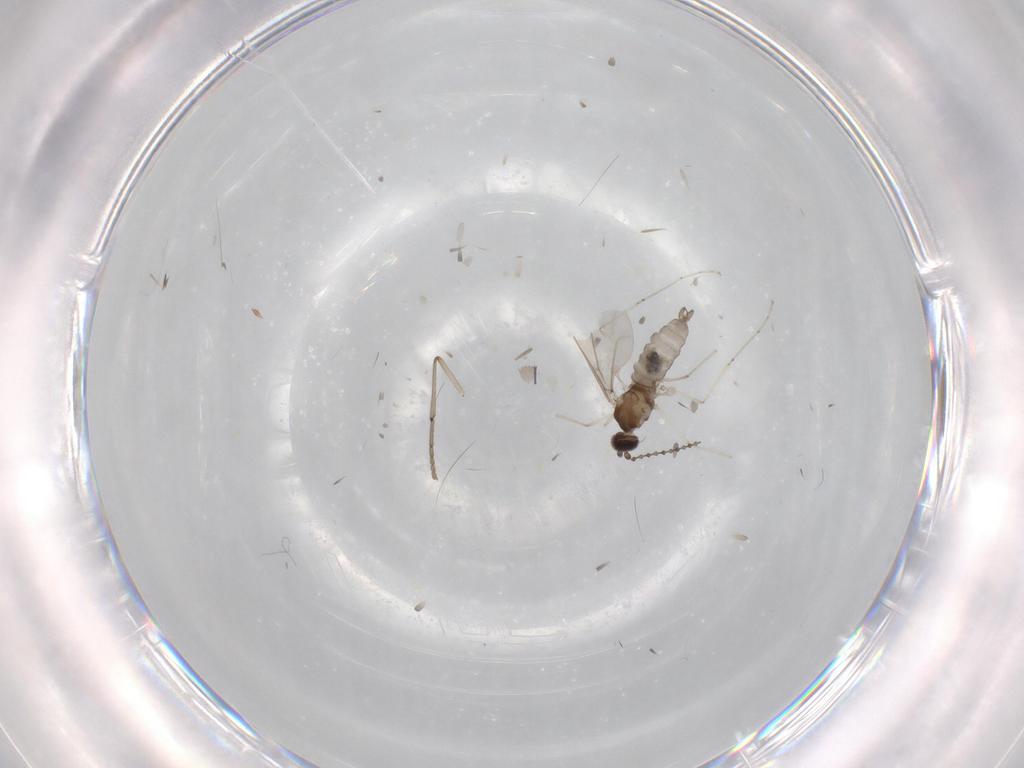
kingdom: Animalia
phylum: Arthropoda
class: Insecta
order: Diptera
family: Cecidomyiidae
